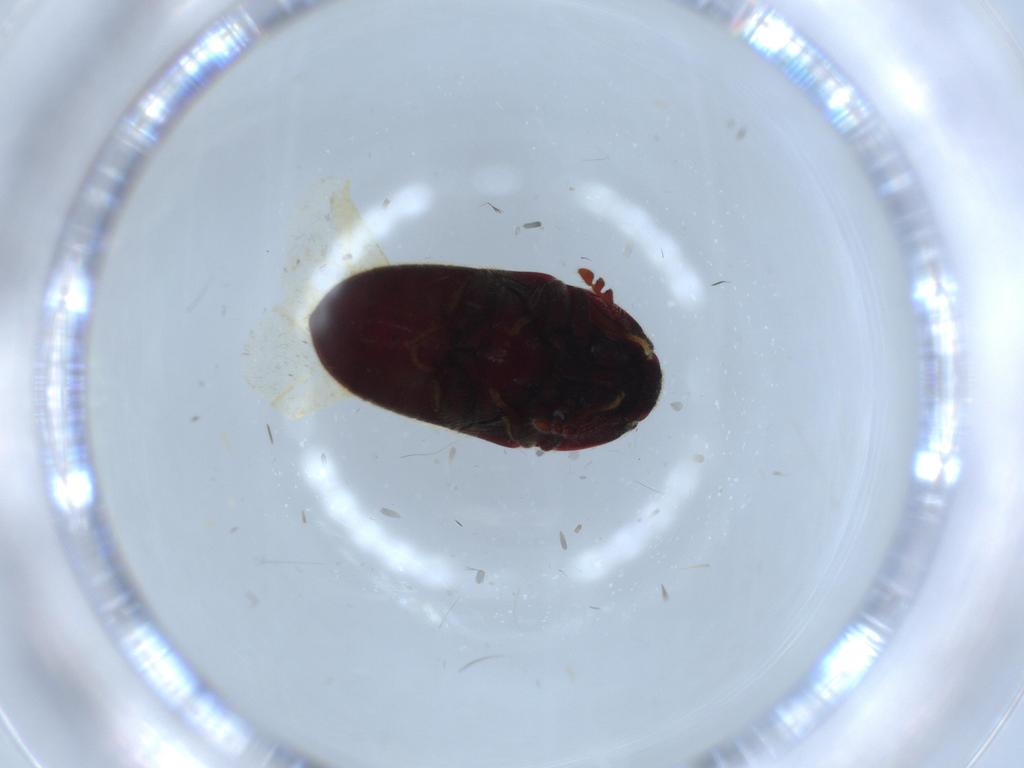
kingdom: Animalia
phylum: Arthropoda
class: Insecta
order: Coleoptera
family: Throscidae
